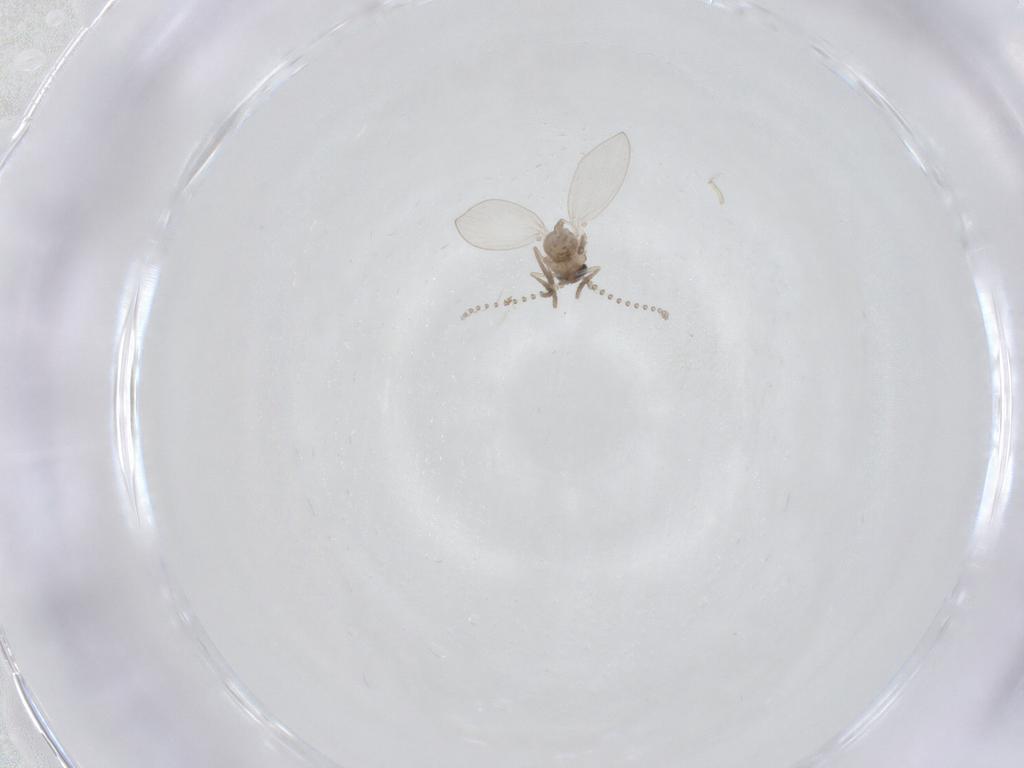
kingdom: Animalia
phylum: Arthropoda
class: Insecta
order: Diptera
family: Psychodidae
